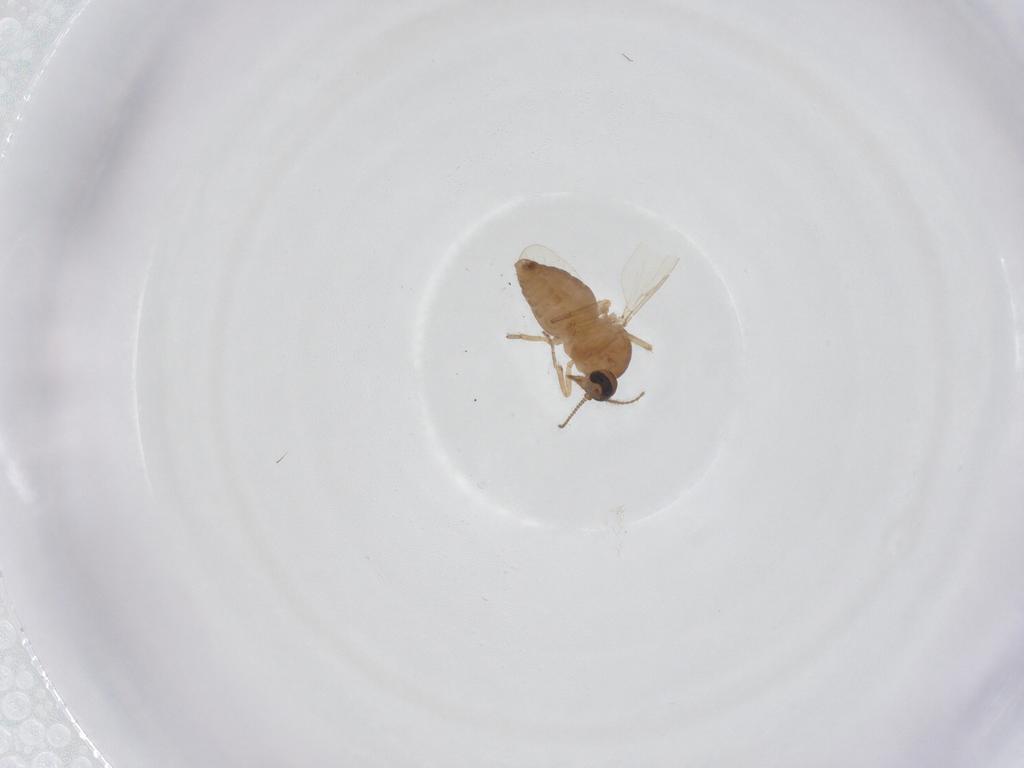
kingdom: Animalia
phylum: Arthropoda
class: Insecta
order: Diptera
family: Ceratopogonidae
